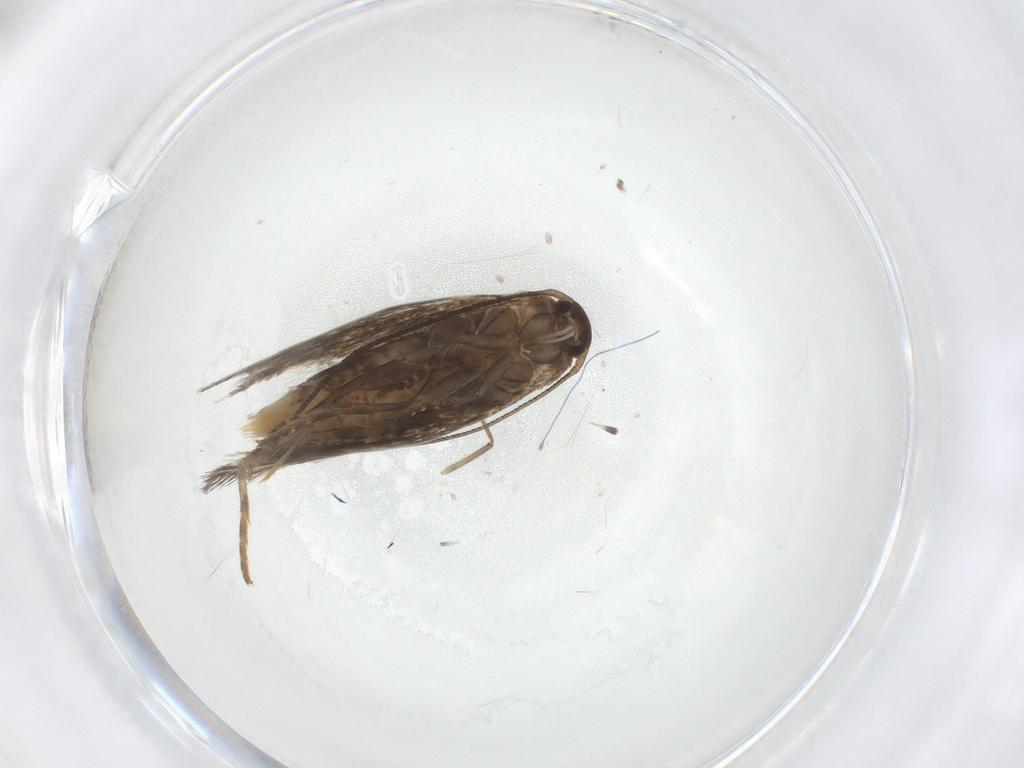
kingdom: Animalia
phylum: Arthropoda
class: Insecta
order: Lepidoptera
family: Elachistidae
